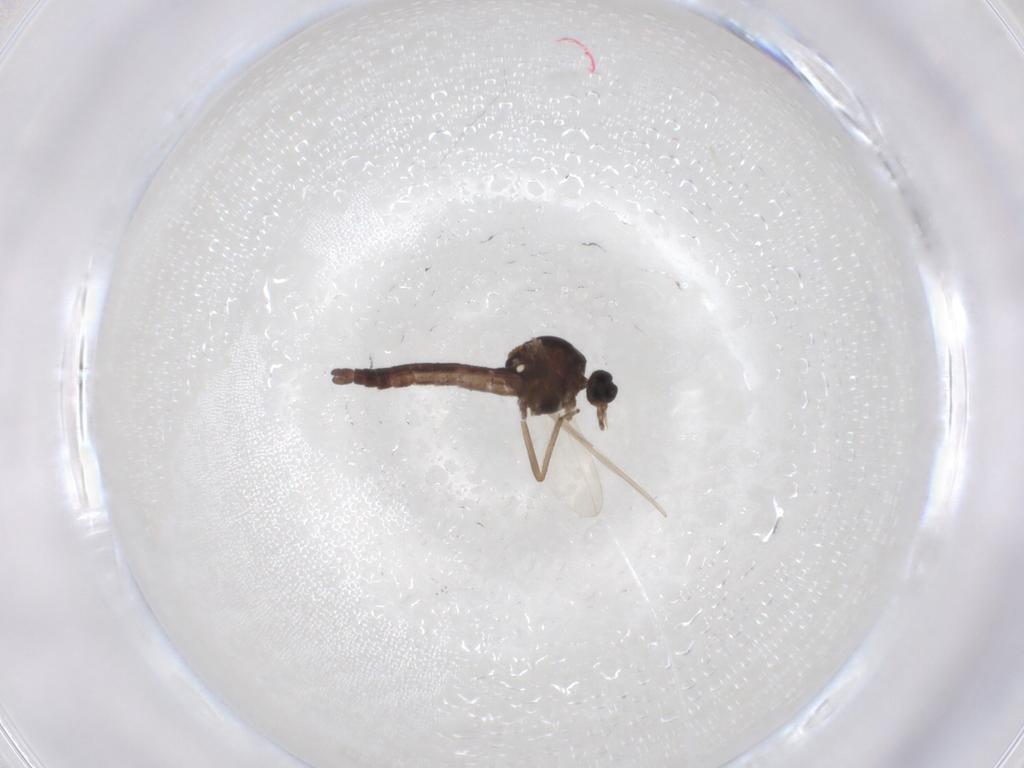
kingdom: Animalia
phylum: Arthropoda
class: Insecta
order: Diptera
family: Ceratopogonidae
